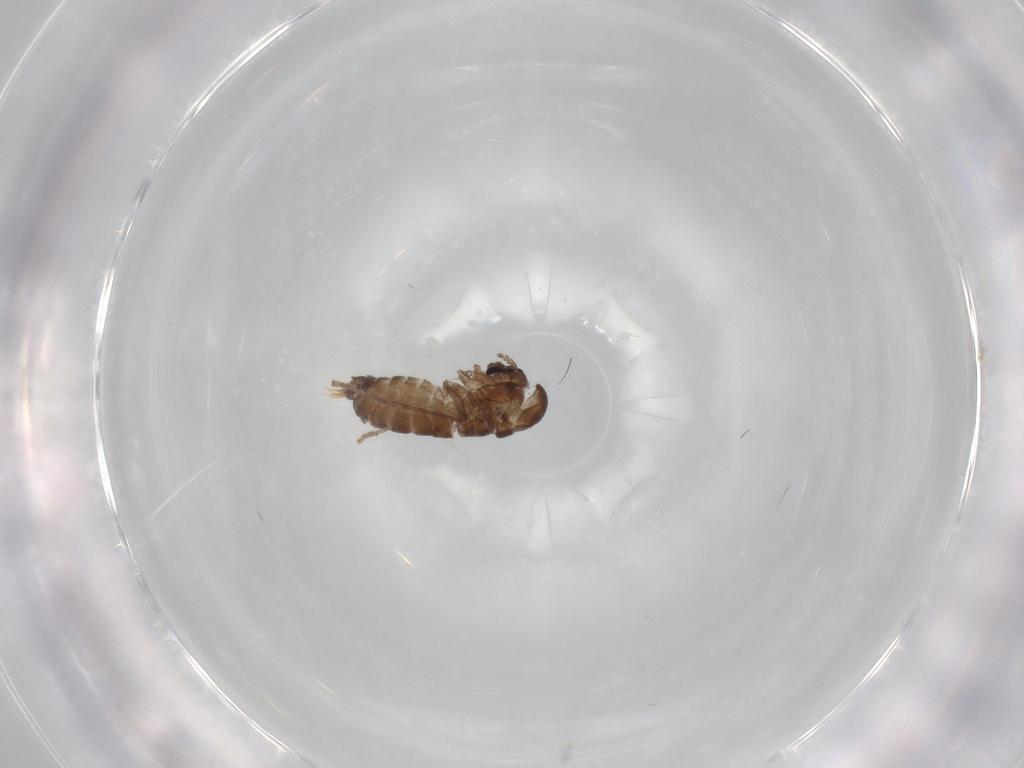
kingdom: Animalia
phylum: Arthropoda
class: Insecta
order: Diptera
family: Psychodidae
